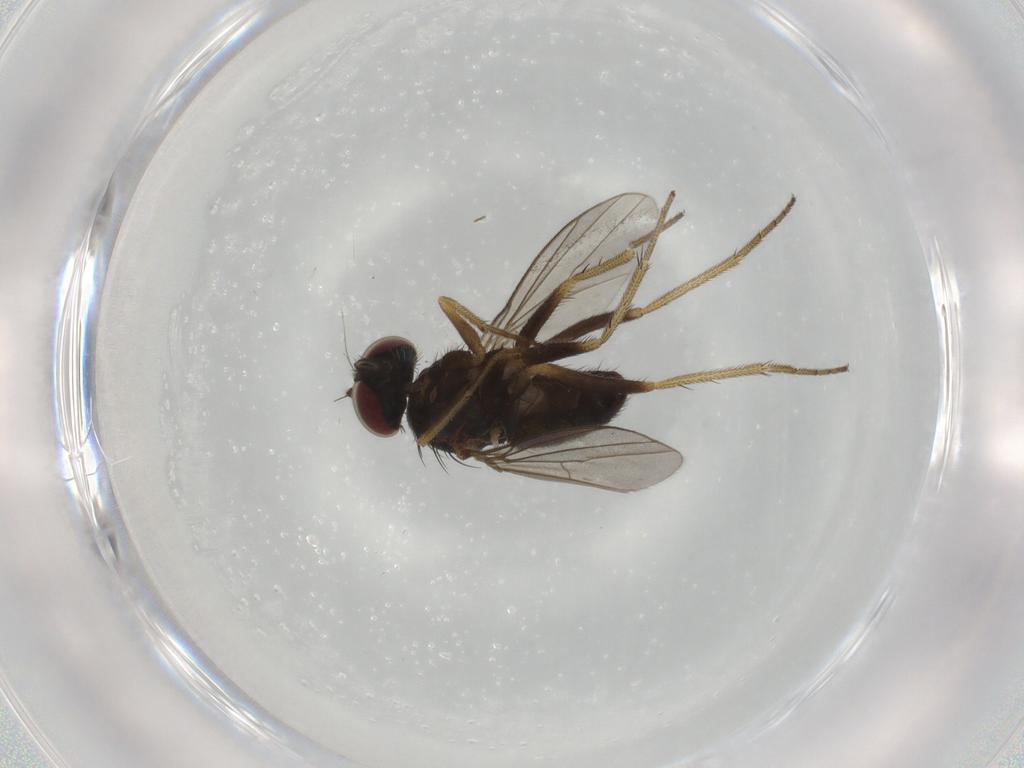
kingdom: Animalia
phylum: Arthropoda
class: Insecta
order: Diptera
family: Dolichopodidae
